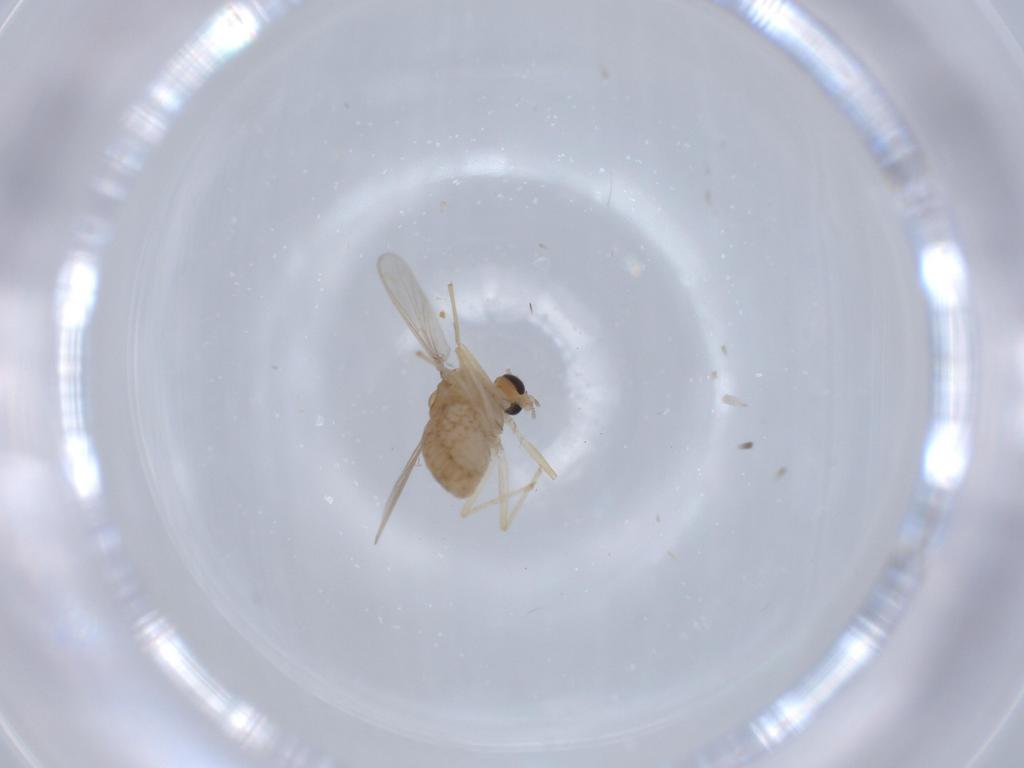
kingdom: Animalia
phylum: Arthropoda
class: Insecta
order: Diptera
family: Chironomidae
